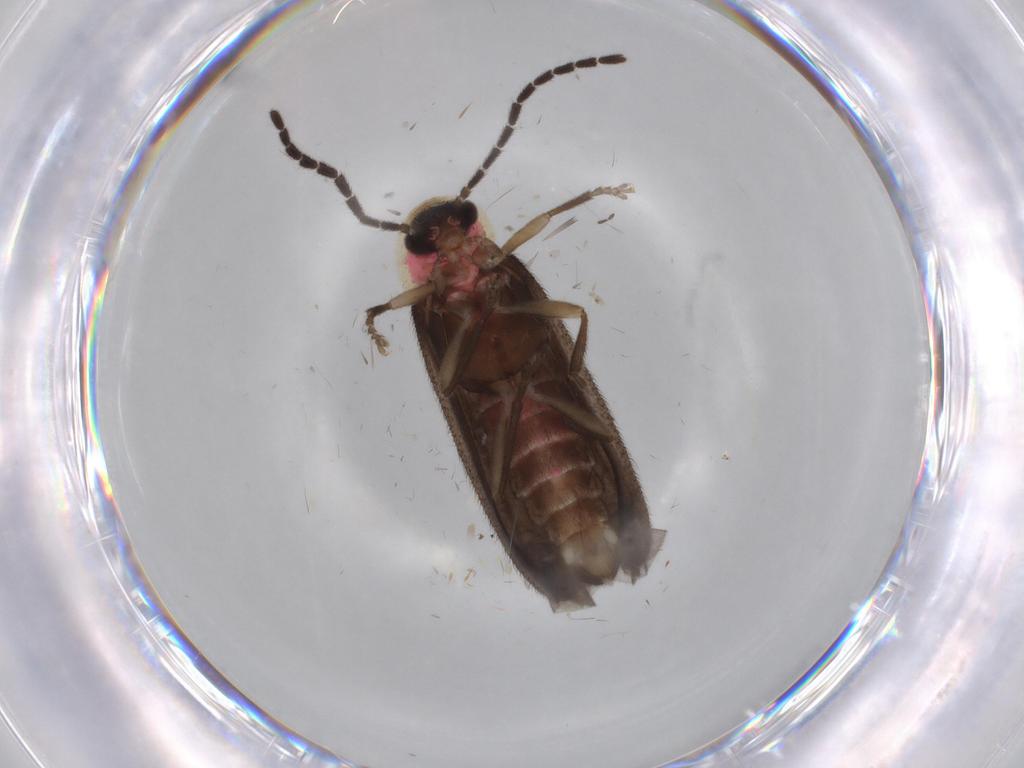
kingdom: Animalia
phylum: Arthropoda
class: Insecta
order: Coleoptera
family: Lampyridae
